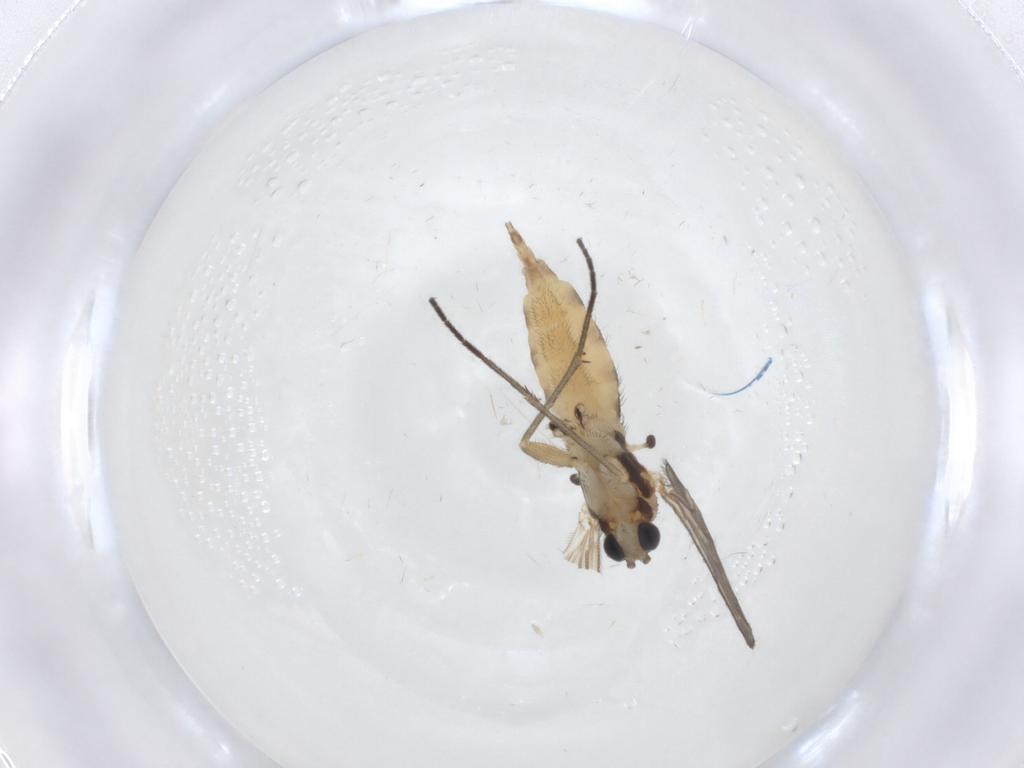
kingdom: Animalia
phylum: Arthropoda
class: Insecta
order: Diptera
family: Sciaridae
